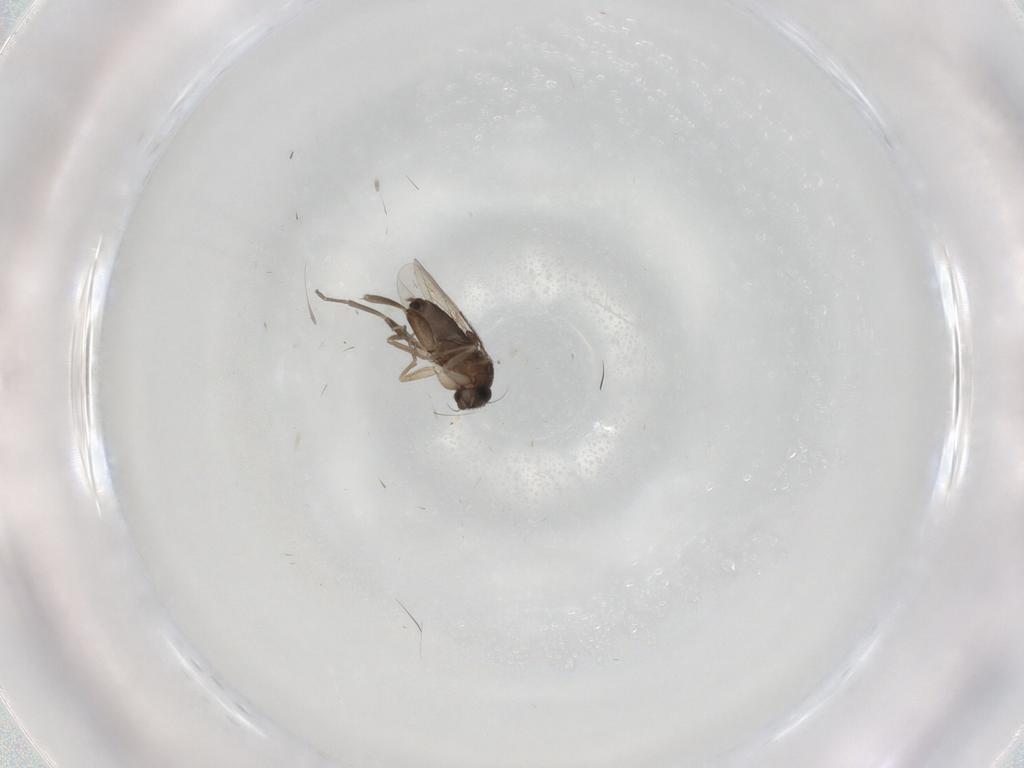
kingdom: Animalia
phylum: Arthropoda
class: Insecta
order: Diptera
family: Phoridae
